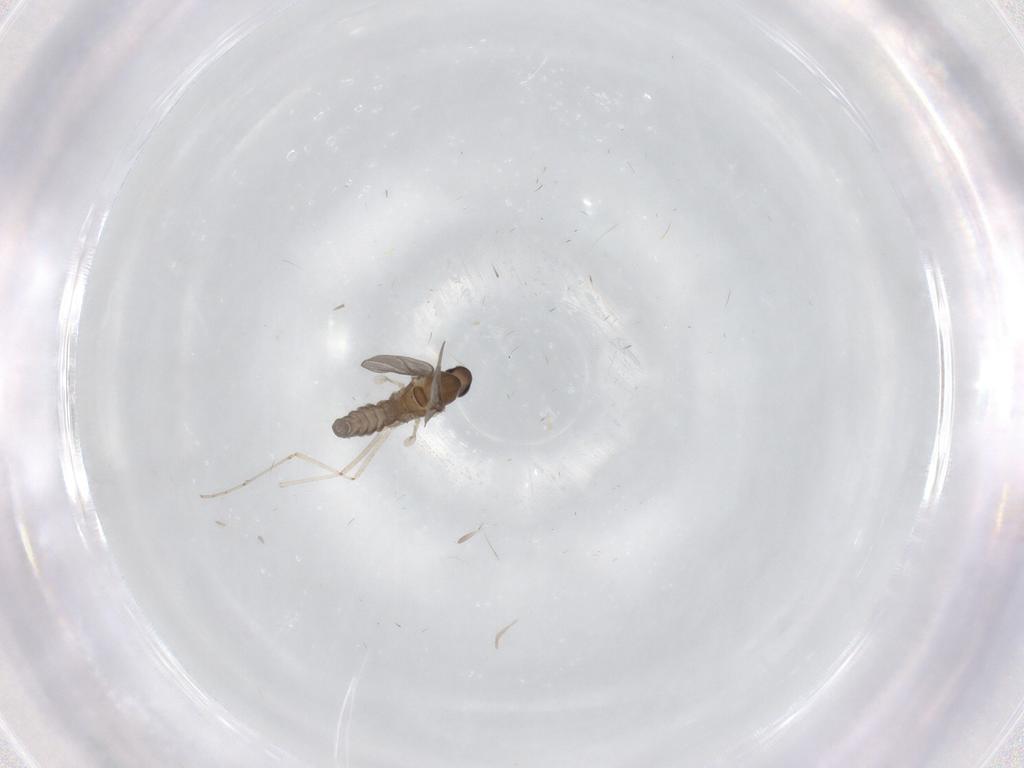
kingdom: Animalia
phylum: Arthropoda
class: Insecta
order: Diptera
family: Cecidomyiidae
